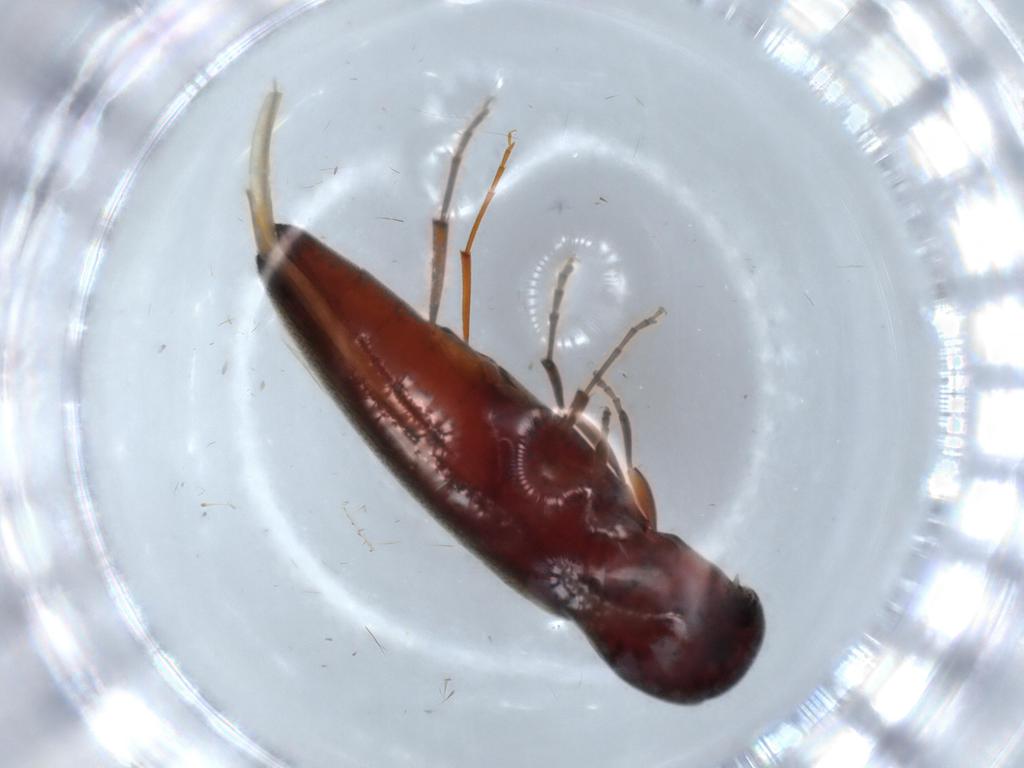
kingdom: Animalia
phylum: Arthropoda
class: Insecta
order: Coleoptera
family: Eucnemidae
